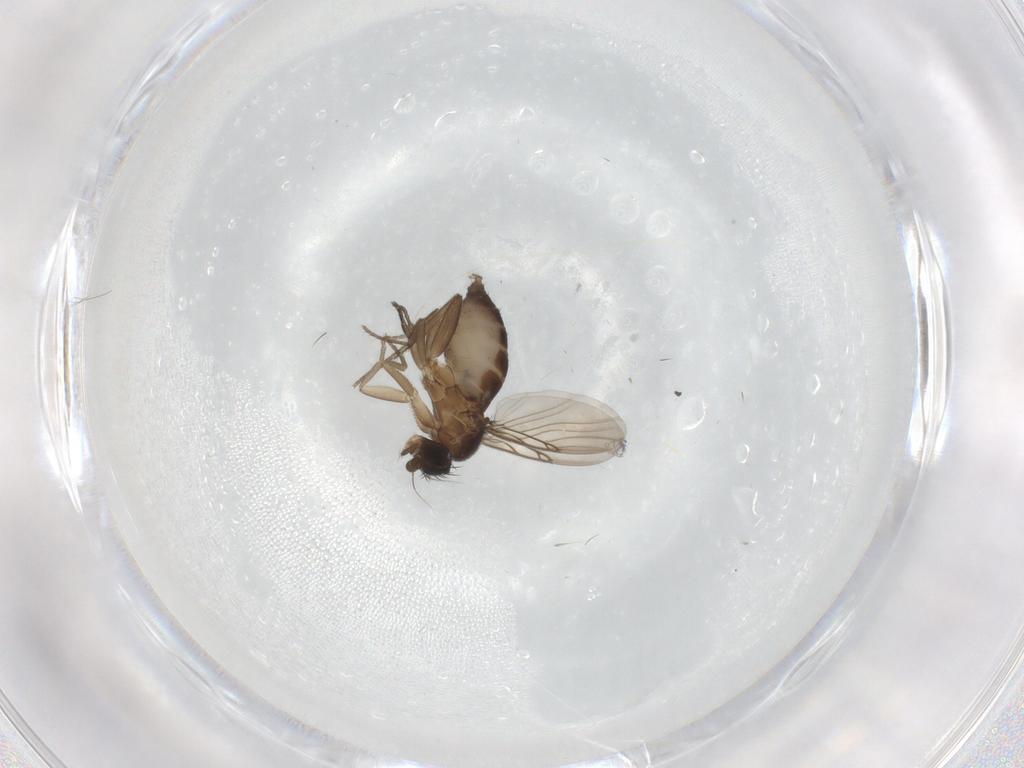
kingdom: Animalia
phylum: Arthropoda
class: Insecta
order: Diptera
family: Phoridae
